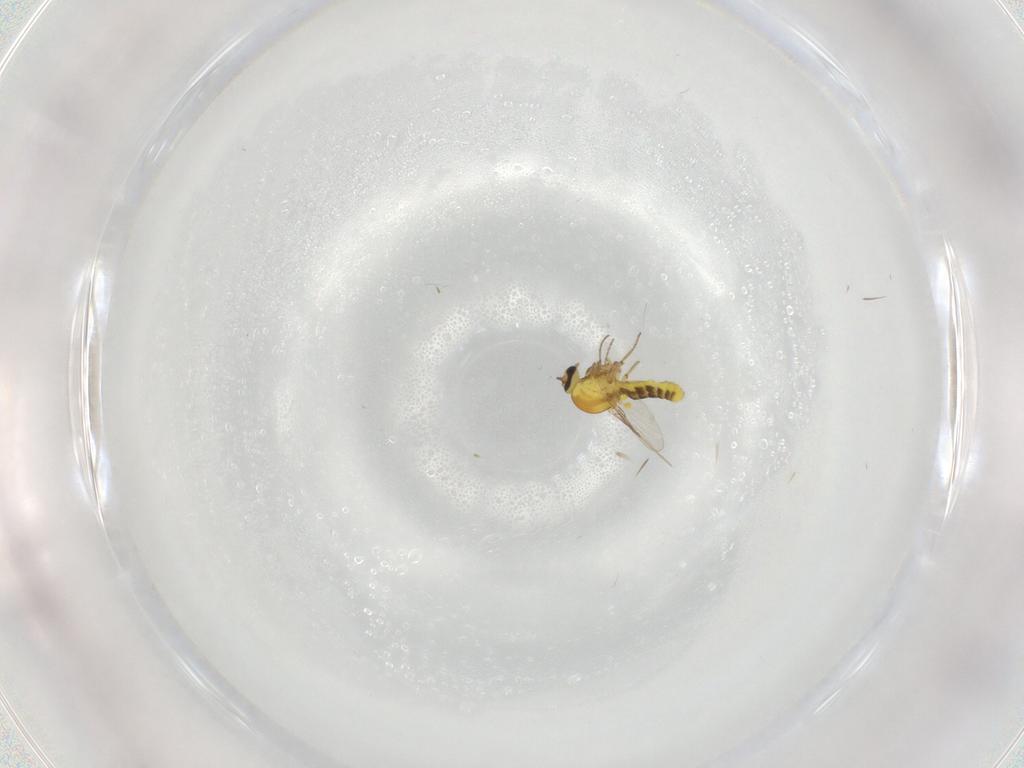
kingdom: Animalia
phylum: Arthropoda
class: Insecta
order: Diptera
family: Ceratopogonidae
